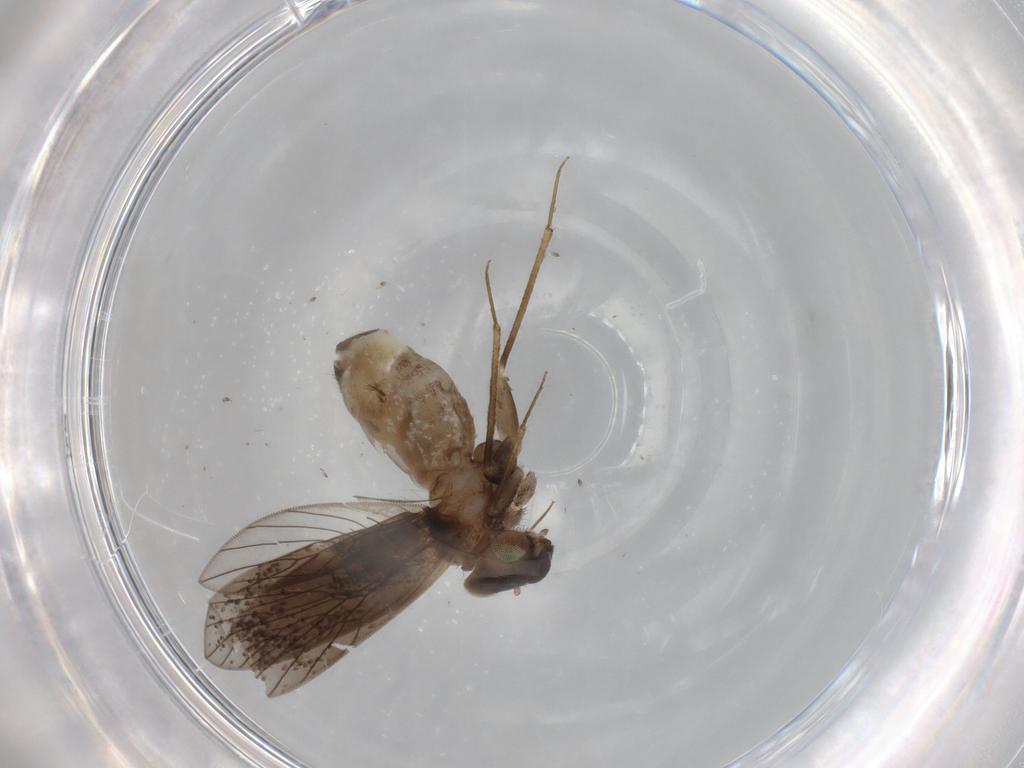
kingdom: Animalia
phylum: Arthropoda
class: Insecta
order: Psocodea
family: Lepidopsocidae
